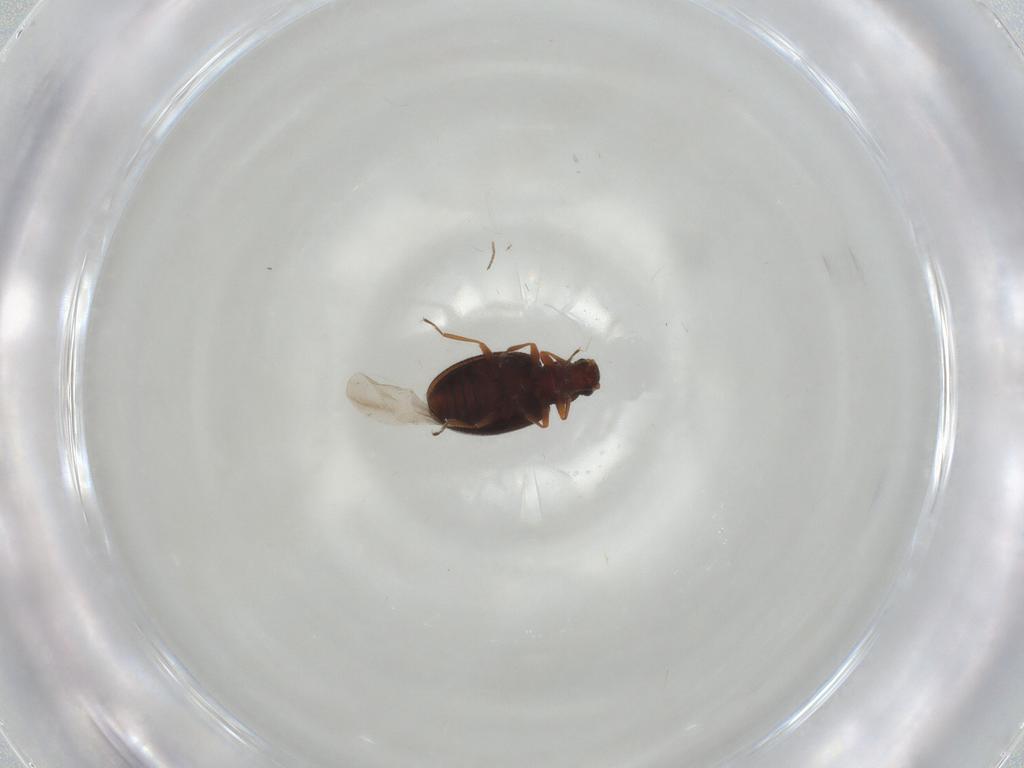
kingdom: Animalia
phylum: Arthropoda
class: Insecta
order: Coleoptera
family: Latridiidae
